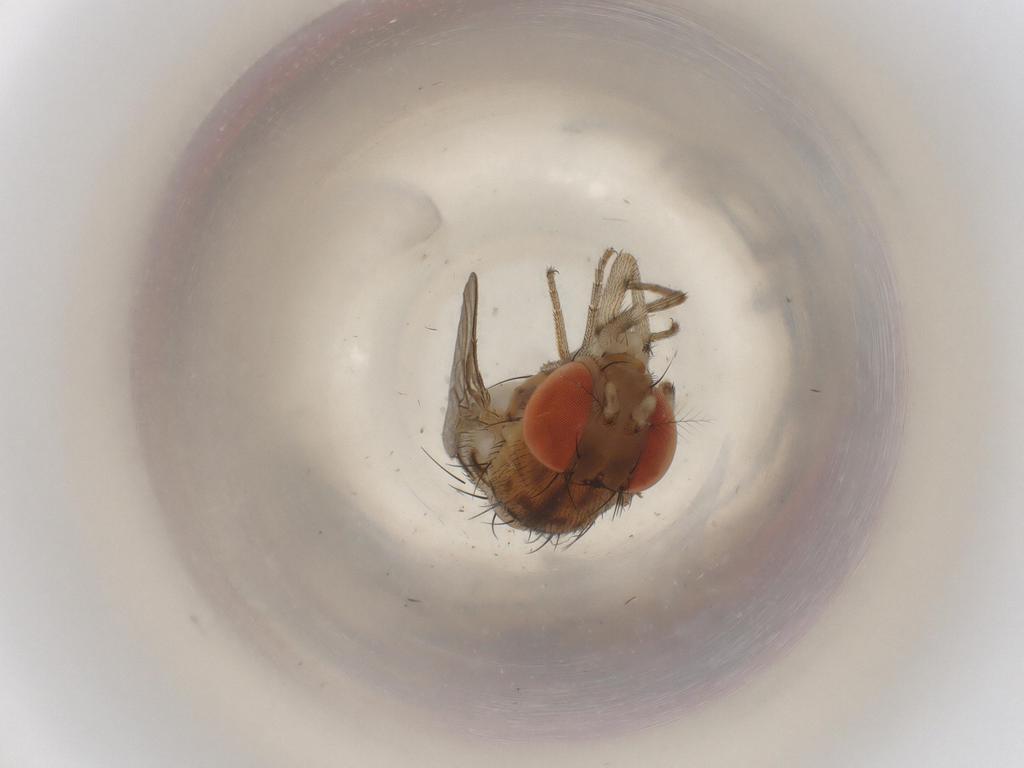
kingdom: Animalia
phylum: Arthropoda
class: Insecta
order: Diptera
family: Drosophilidae
